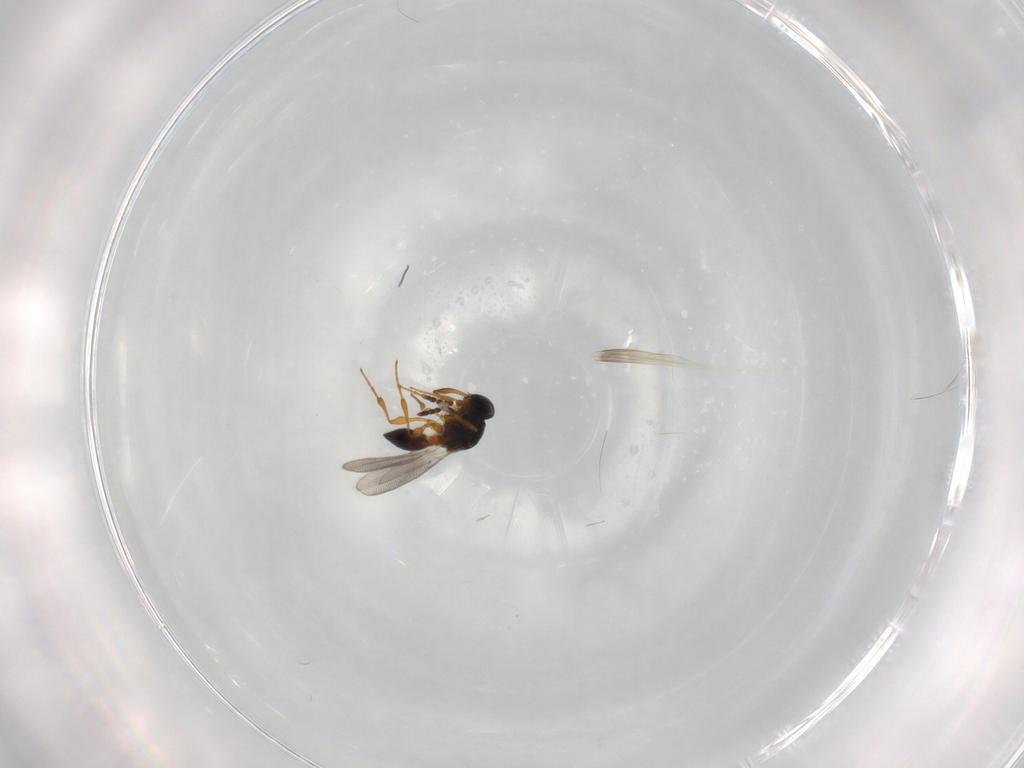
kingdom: Animalia
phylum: Arthropoda
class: Insecta
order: Hymenoptera
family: Platygastridae
